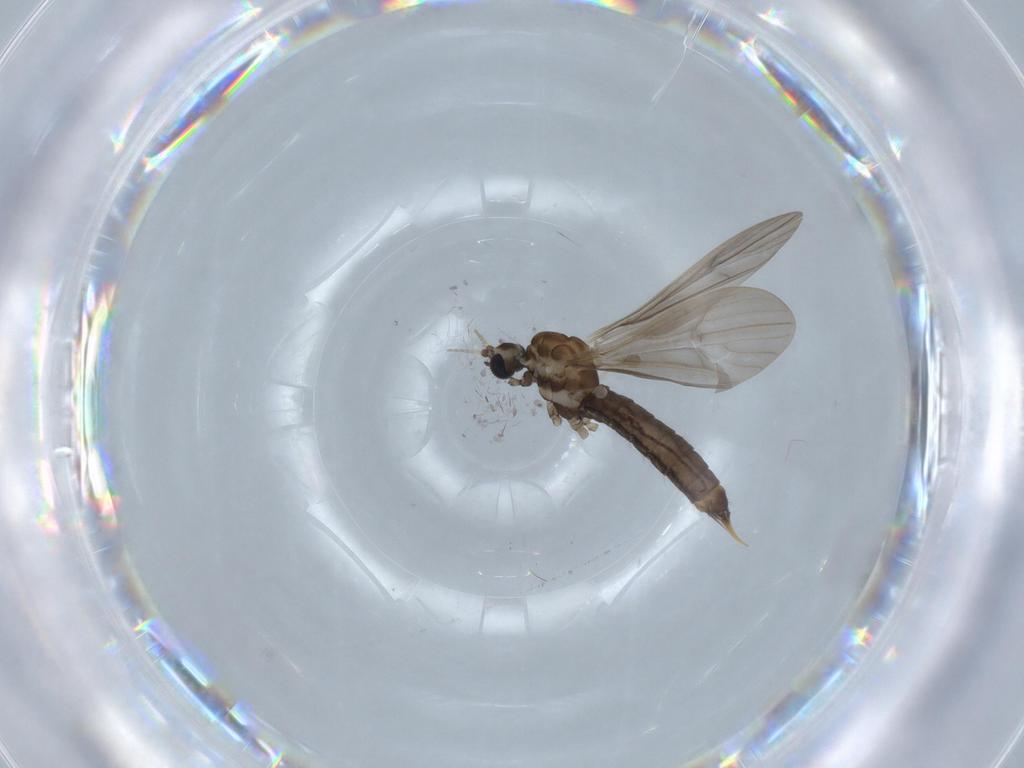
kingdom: Animalia
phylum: Arthropoda
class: Insecta
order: Diptera
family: Limoniidae
